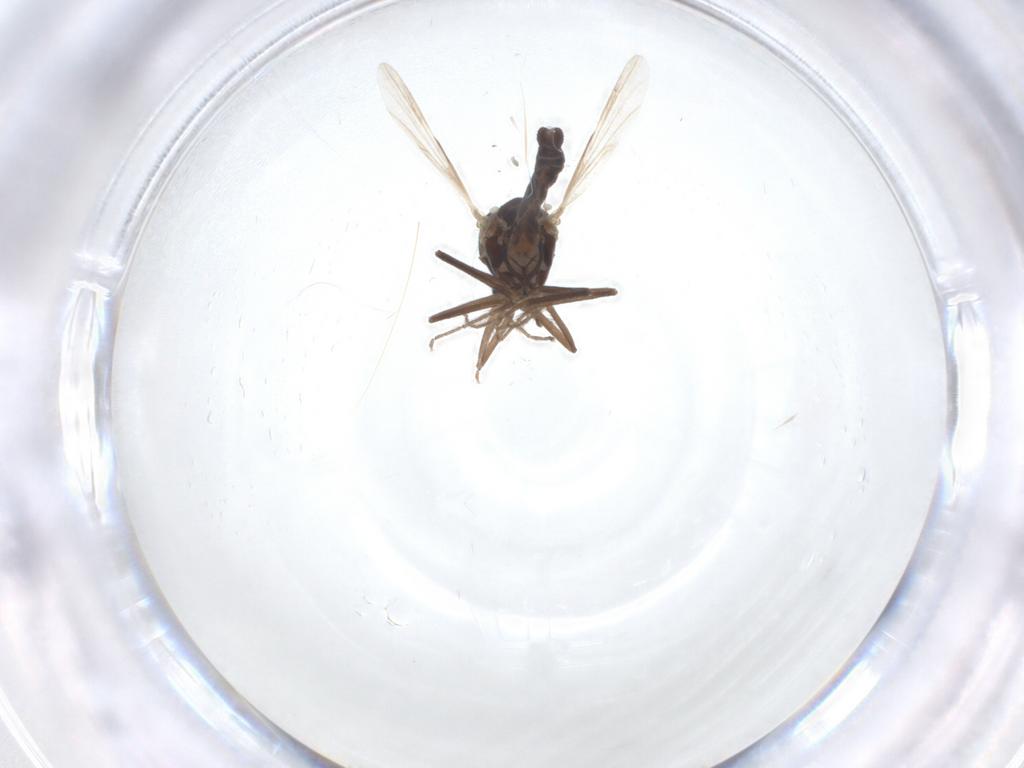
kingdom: Animalia
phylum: Arthropoda
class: Insecta
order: Diptera
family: Ceratopogonidae
